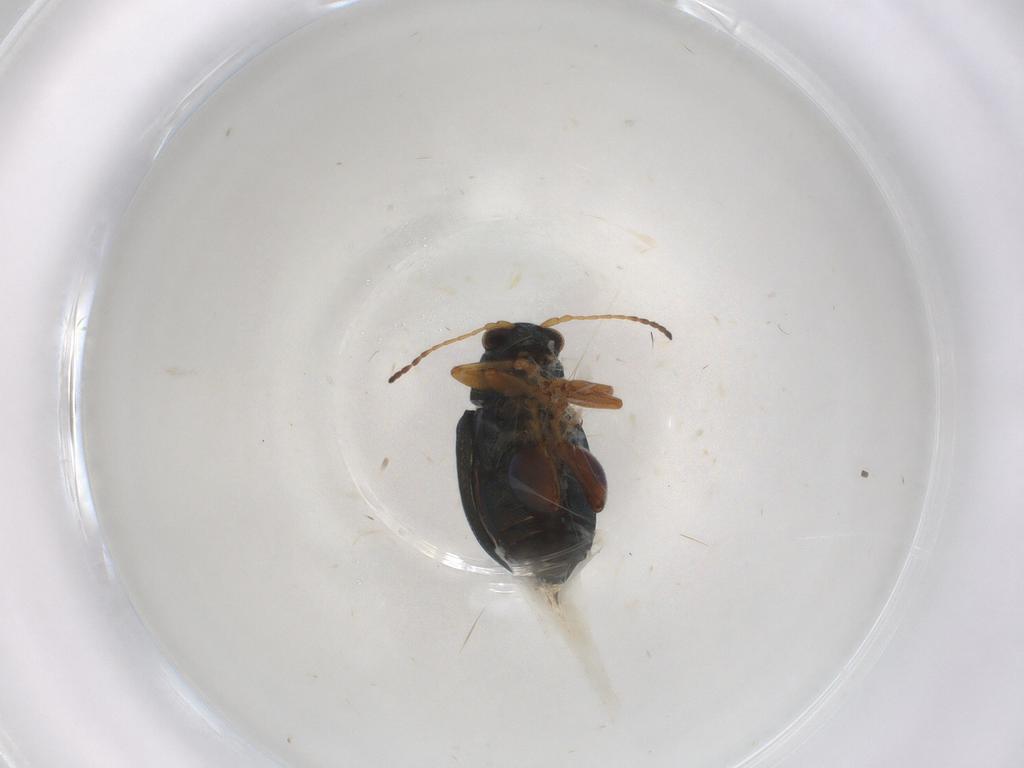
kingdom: Animalia
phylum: Arthropoda
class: Insecta
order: Coleoptera
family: Chrysomelidae
